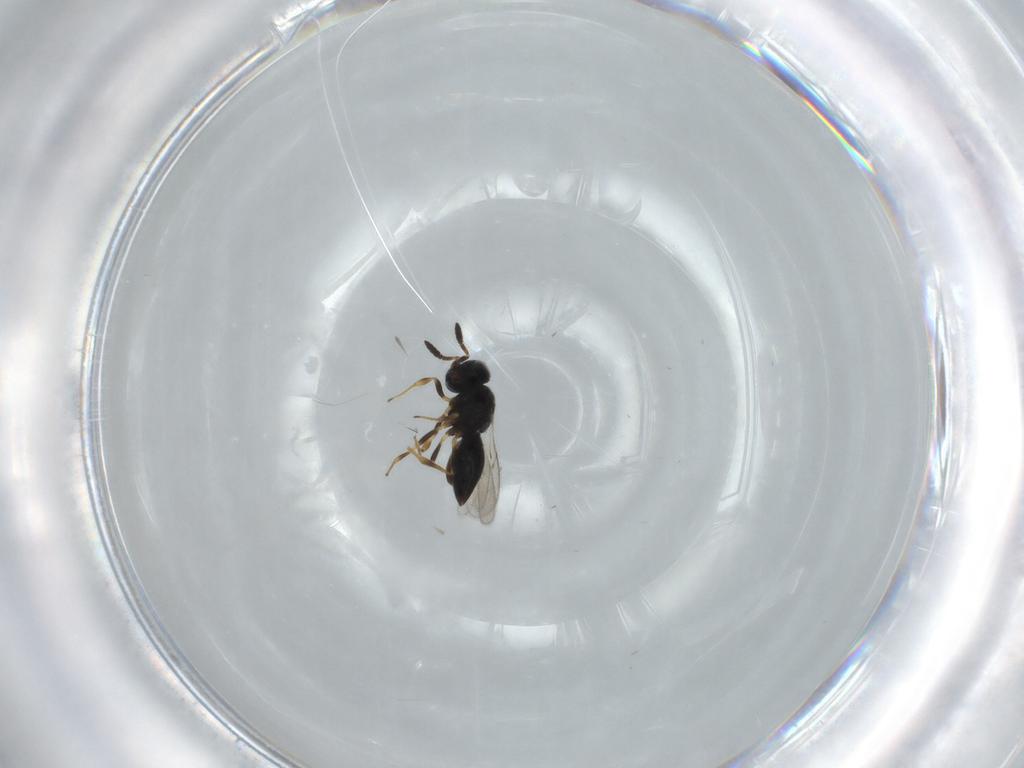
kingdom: Animalia
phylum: Arthropoda
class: Insecta
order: Hymenoptera
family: Scelionidae
